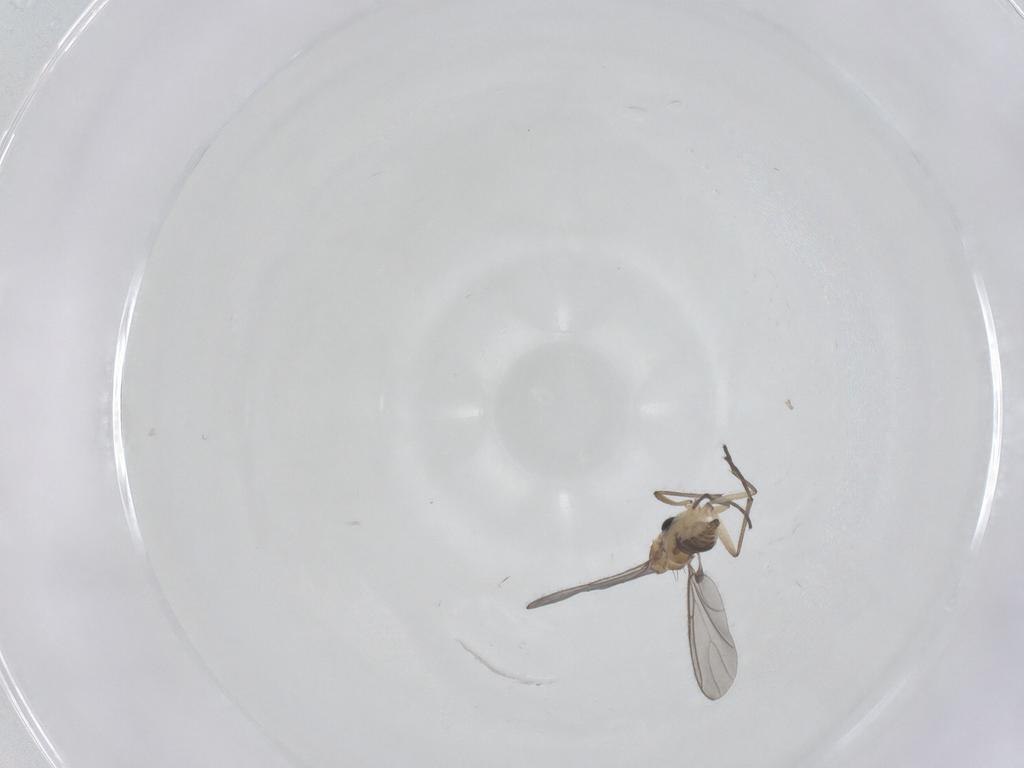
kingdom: Animalia
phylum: Arthropoda
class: Insecta
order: Diptera
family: Sciaridae
